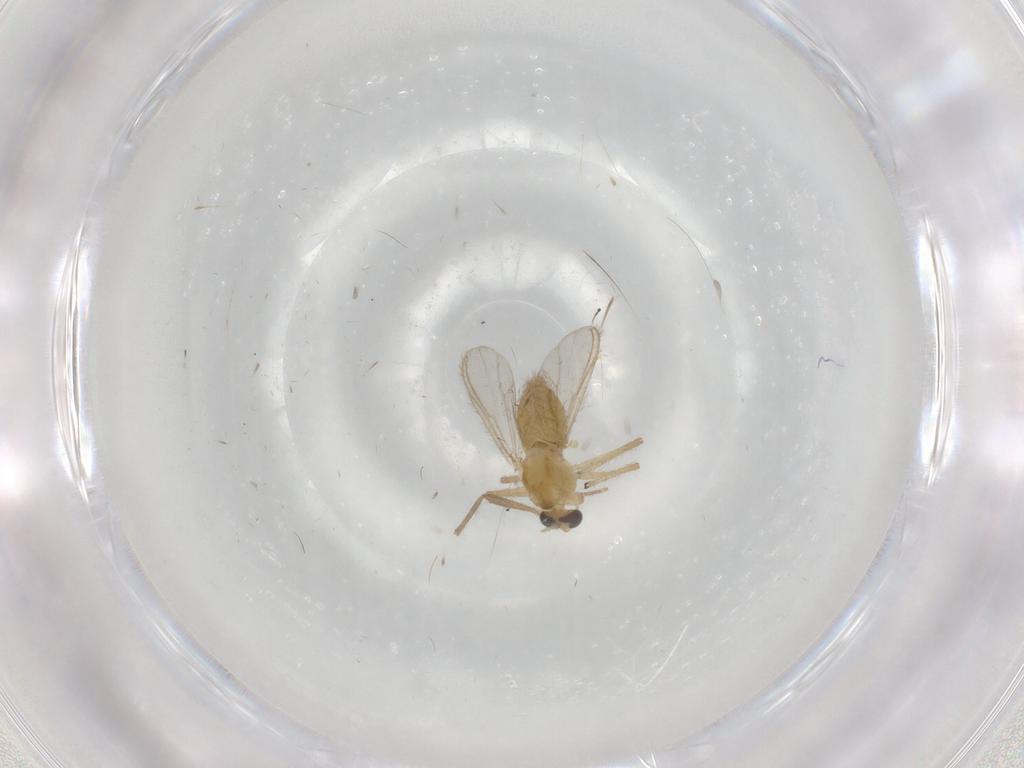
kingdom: Animalia
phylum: Arthropoda
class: Insecta
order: Diptera
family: Chironomidae
